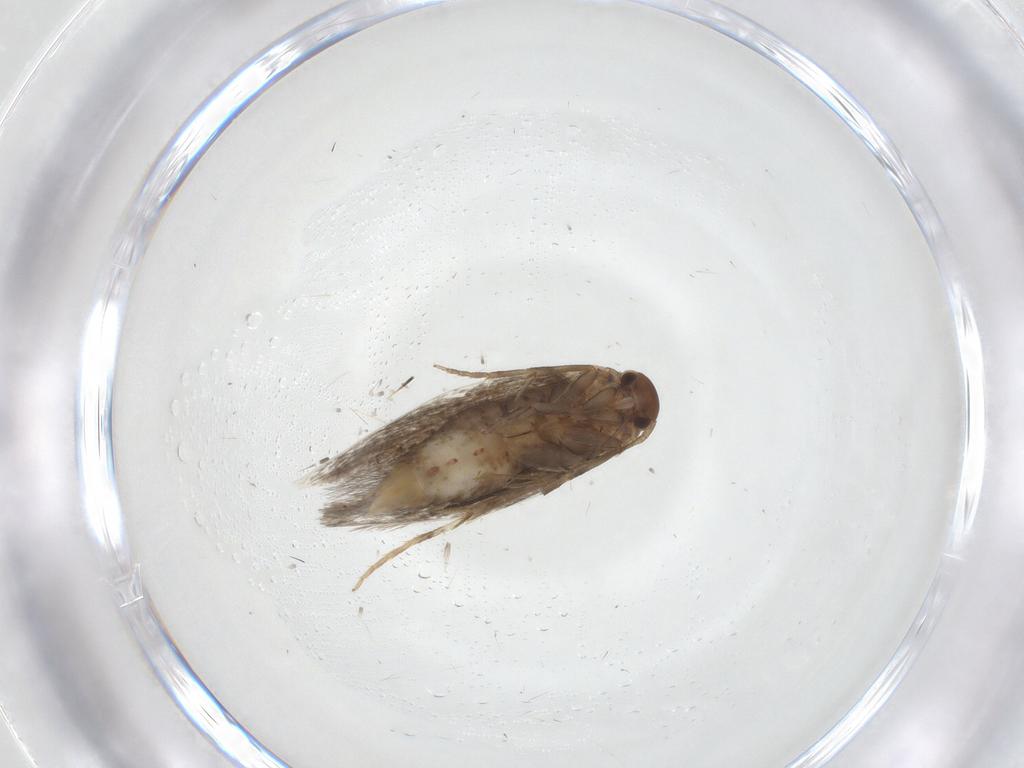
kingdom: Animalia
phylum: Arthropoda
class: Insecta
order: Lepidoptera
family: Elachistidae
